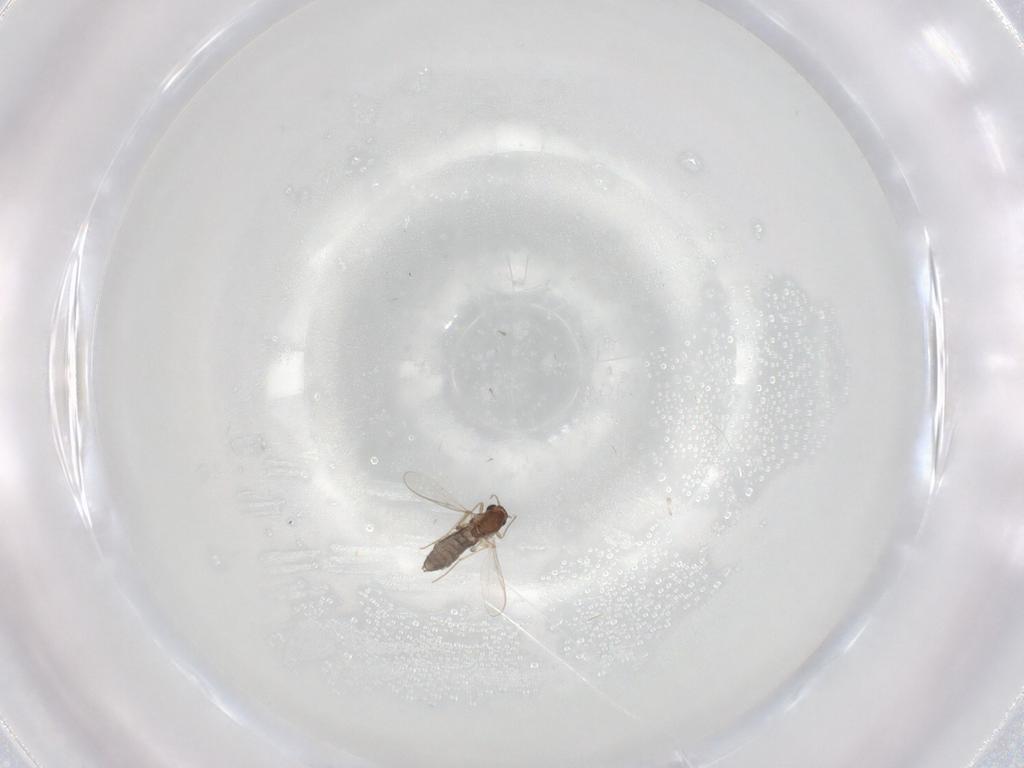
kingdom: Animalia
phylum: Arthropoda
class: Insecta
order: Diptera
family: Chironomidae
